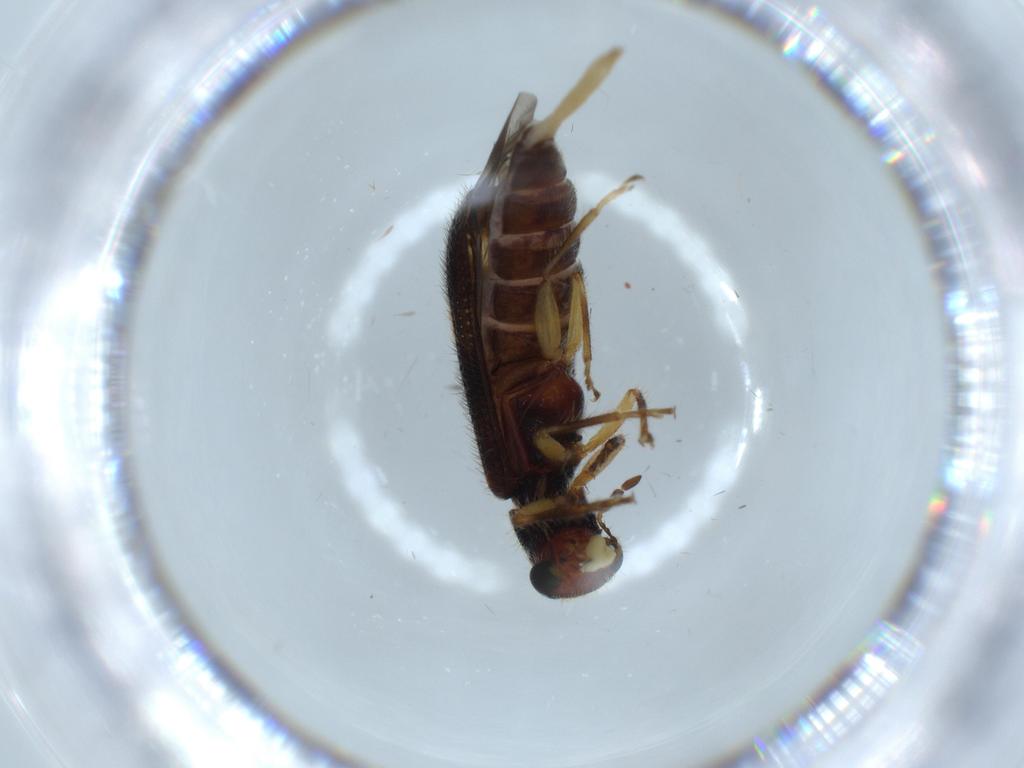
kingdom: Animalia
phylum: Arthropoda
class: Insecta
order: Coleoptera
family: Cleridae
